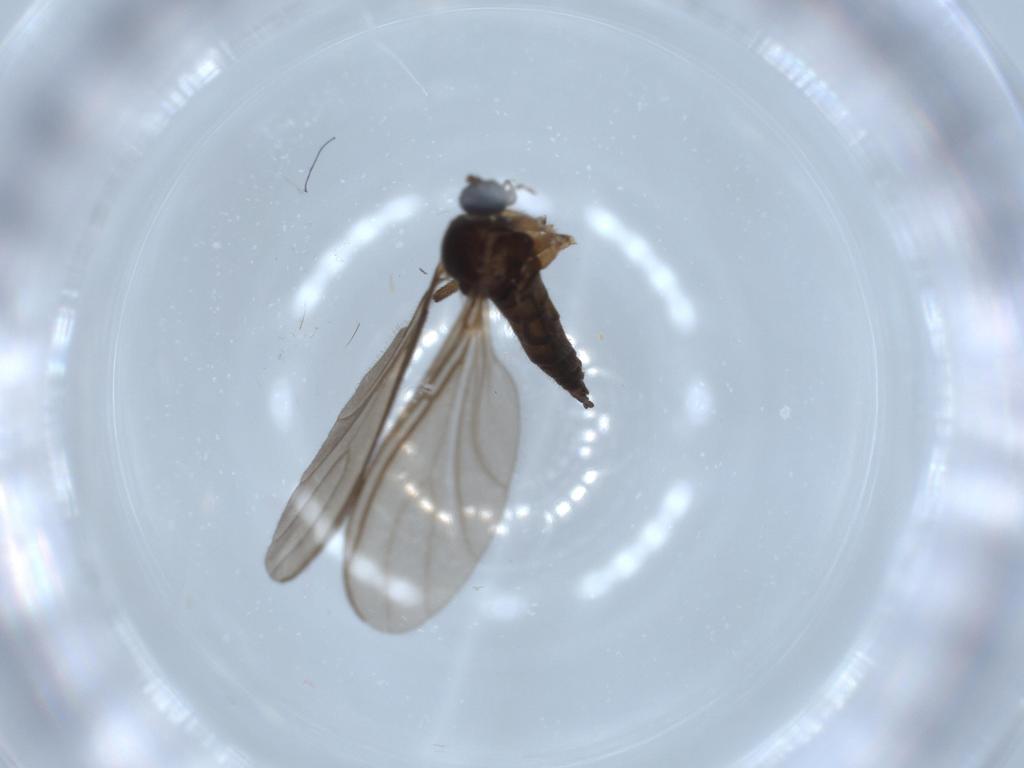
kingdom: Animalia
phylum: Arthropoda
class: Insecta
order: Diptera
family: Sciaridae
